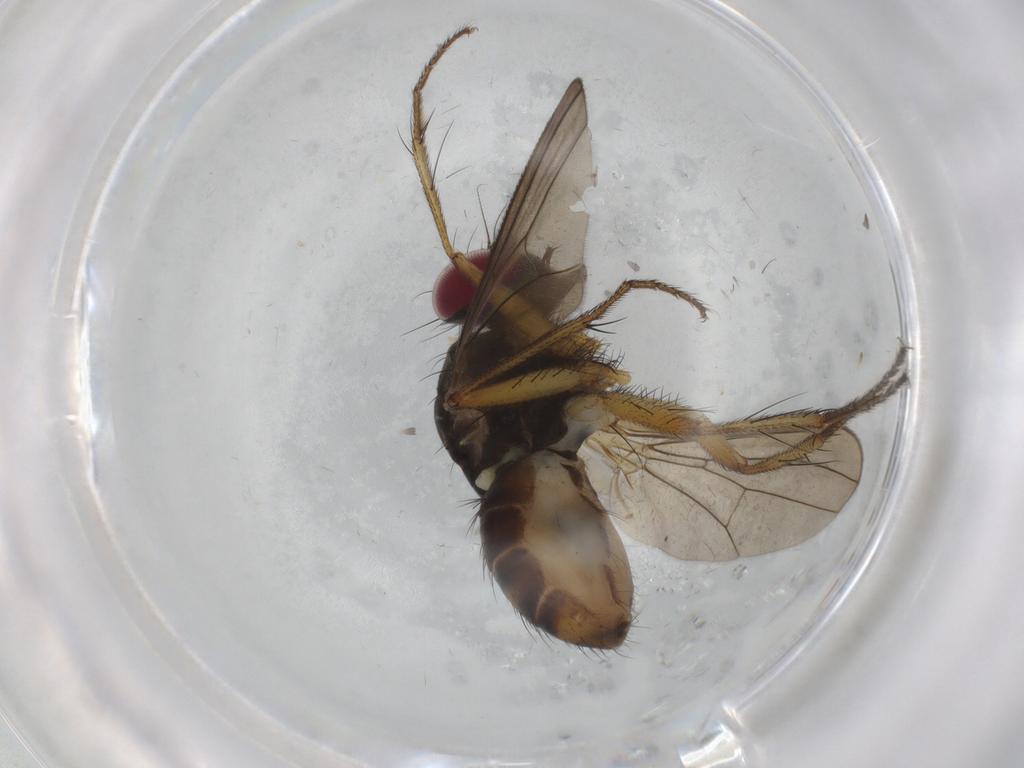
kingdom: Animalia
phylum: Arthropoda
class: Insecta
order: Diptera
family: Anthomyiidae
